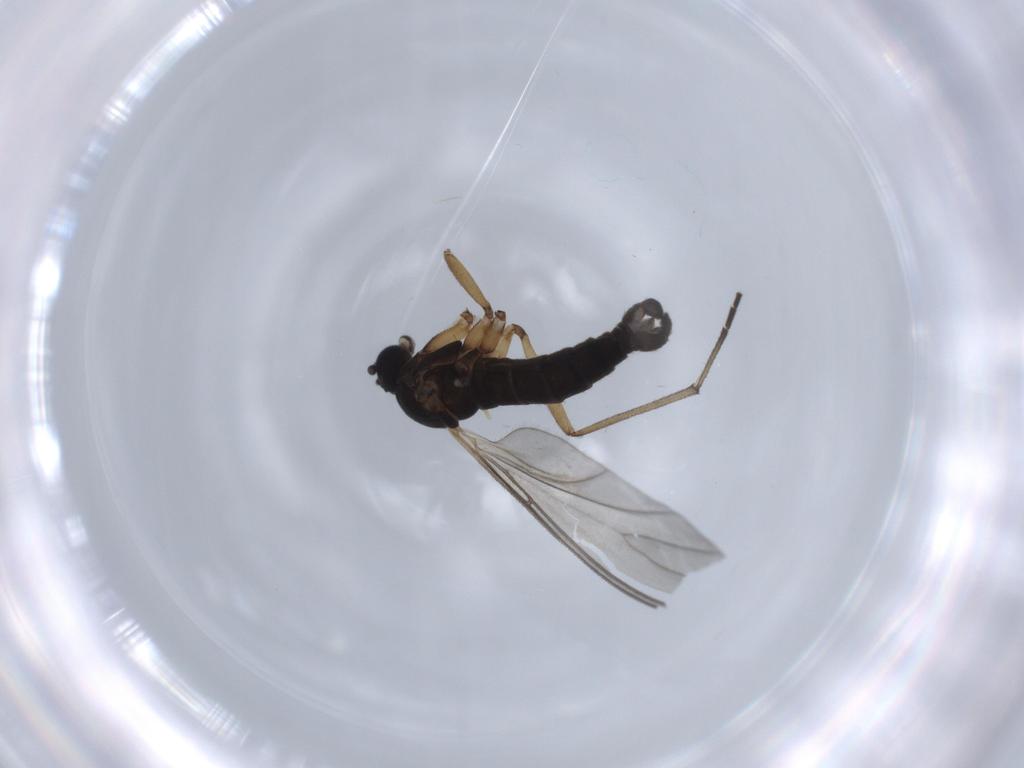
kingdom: Animalia
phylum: Arthropoda
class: Insecta
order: Diptera
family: Sciaridae
